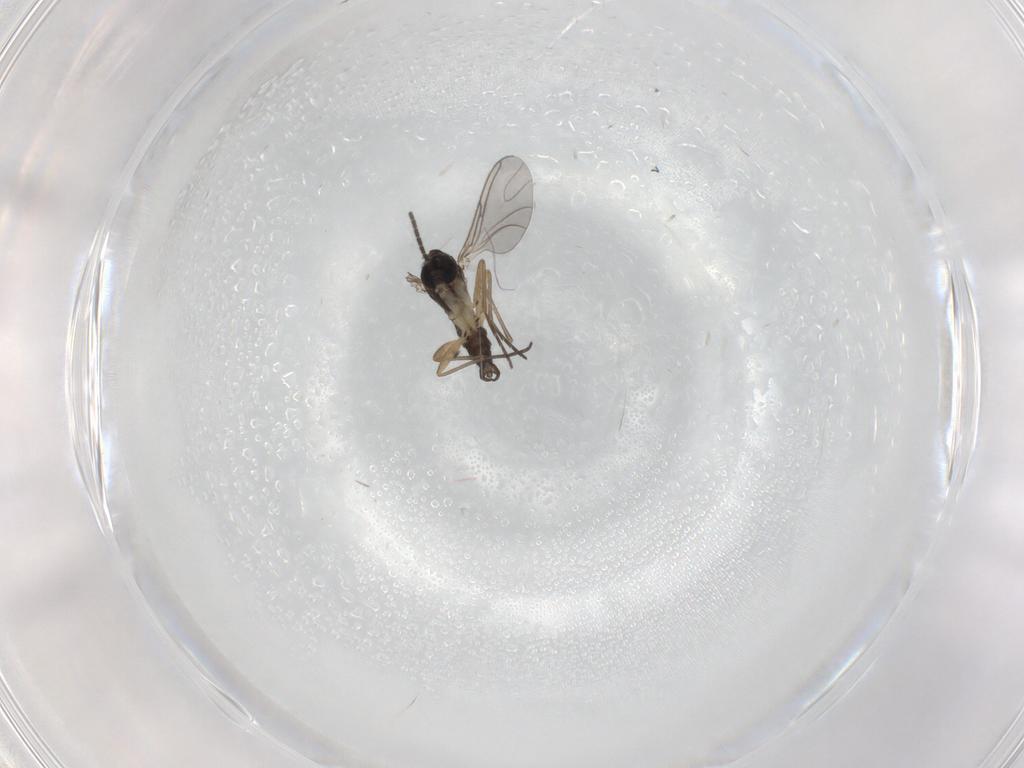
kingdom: Animalia
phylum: Arthropoda
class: Insecta
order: Diptera
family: Sciaridae
